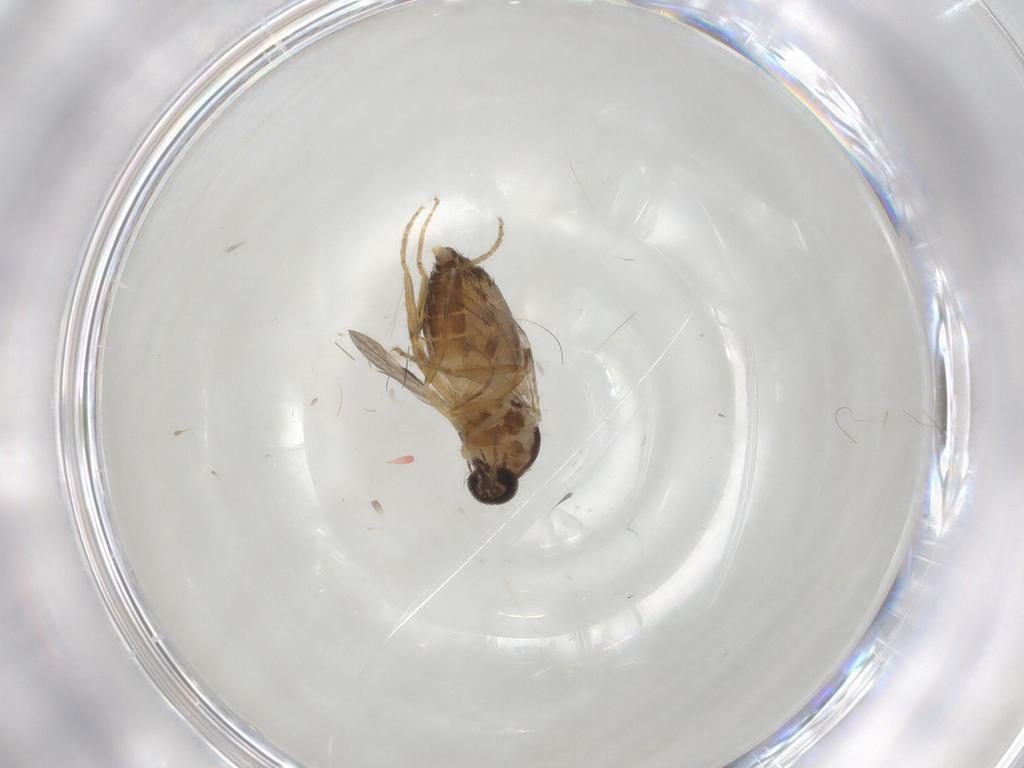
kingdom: Animalia
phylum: Arthropoda
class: Insecta
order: Diptera
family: Ceratopogonidae
